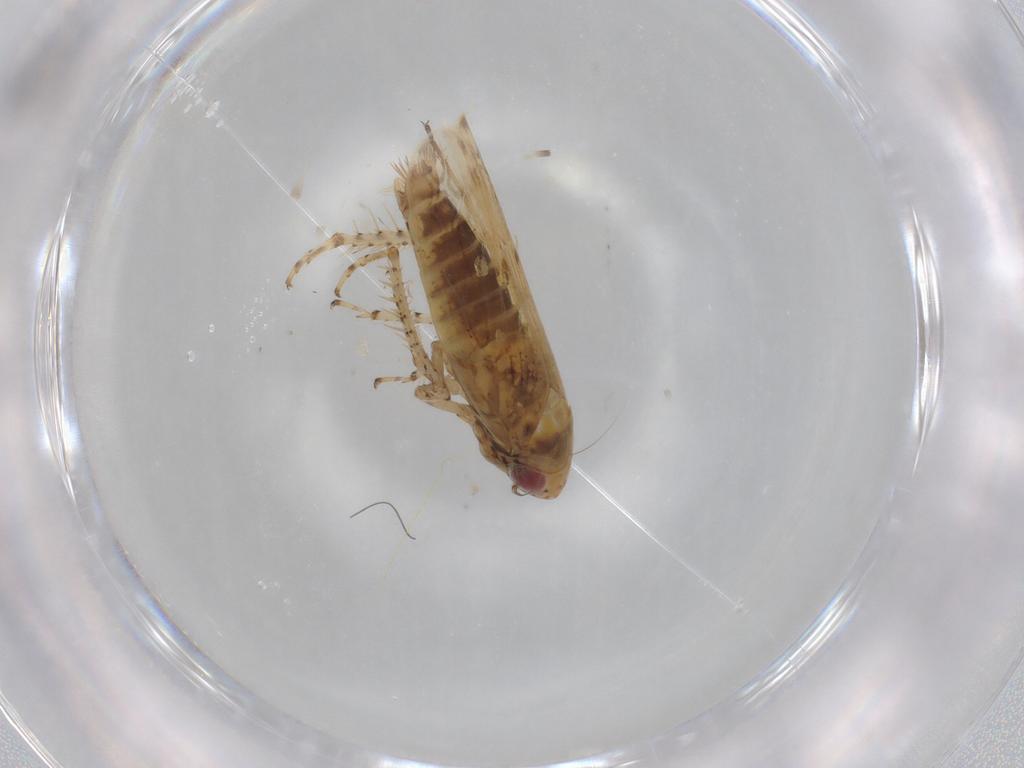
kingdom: Animalia
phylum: Arthropoda
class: Insecta
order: Hemiptera
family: Cicadellidae
